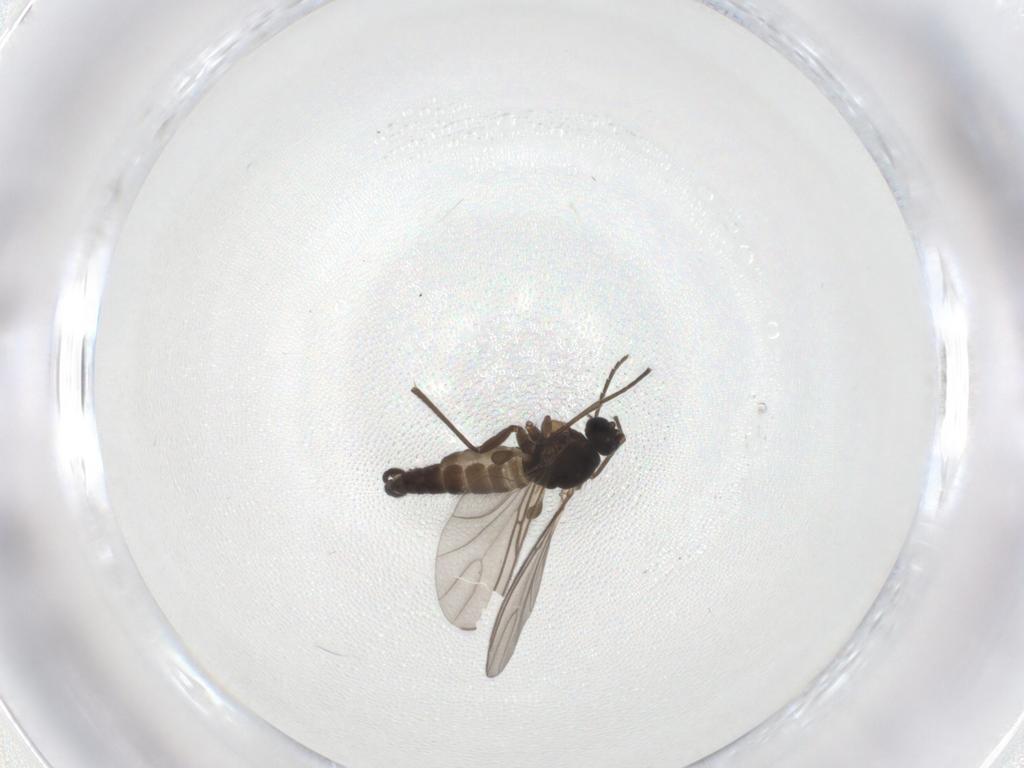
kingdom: Animalia
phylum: Arthropoda
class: Insecta
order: Diptera
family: Sciaridae
